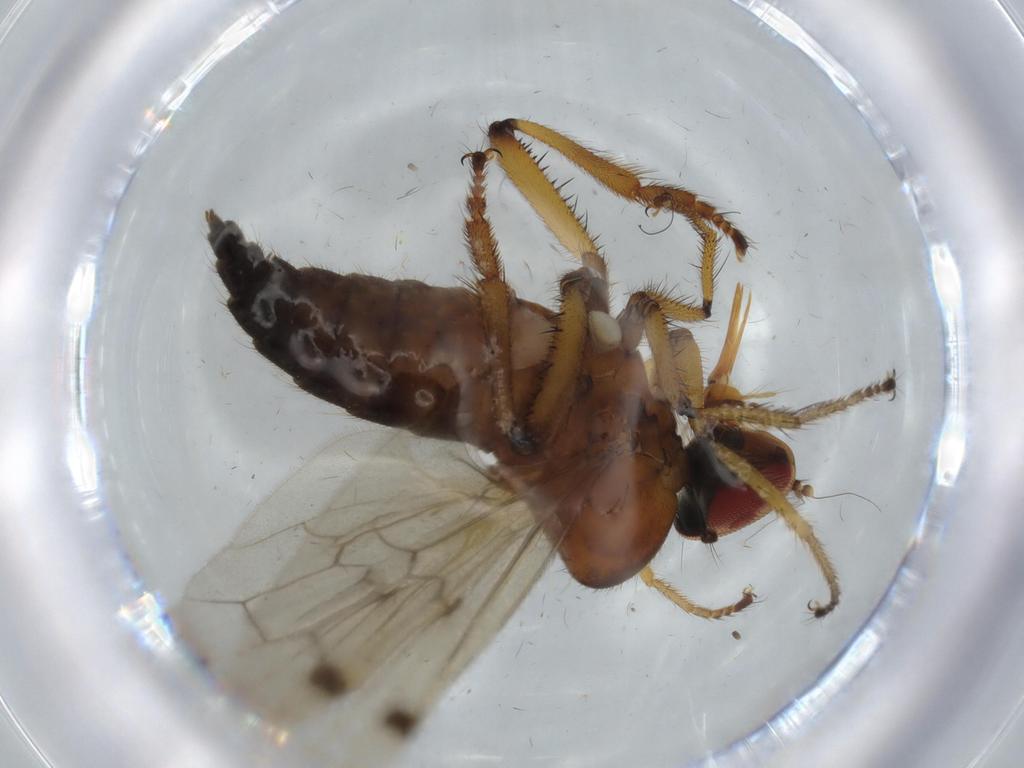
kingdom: Animalia
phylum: Arthropoda
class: Insecta
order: Diptera
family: Hybotidae
